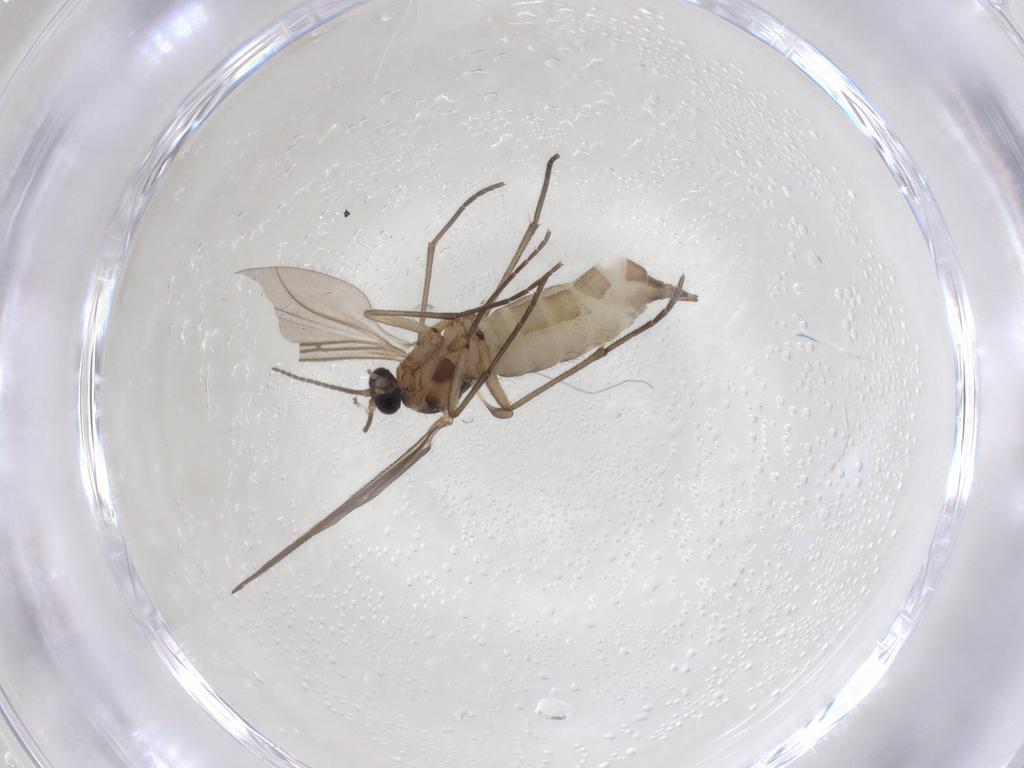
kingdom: Animalia
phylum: Arthropoda
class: Insecta
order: Diptera
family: Sciaridae
